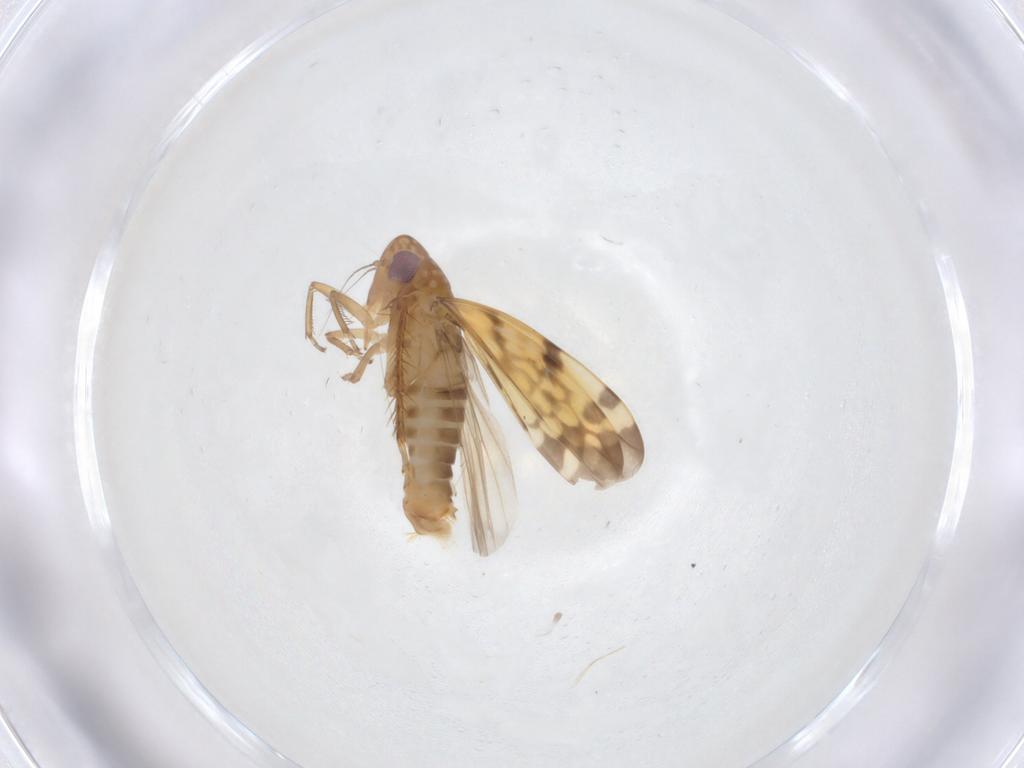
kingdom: Animalia
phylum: Arthropoda
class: Insecta
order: Hemiptera
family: Cicadellidae
